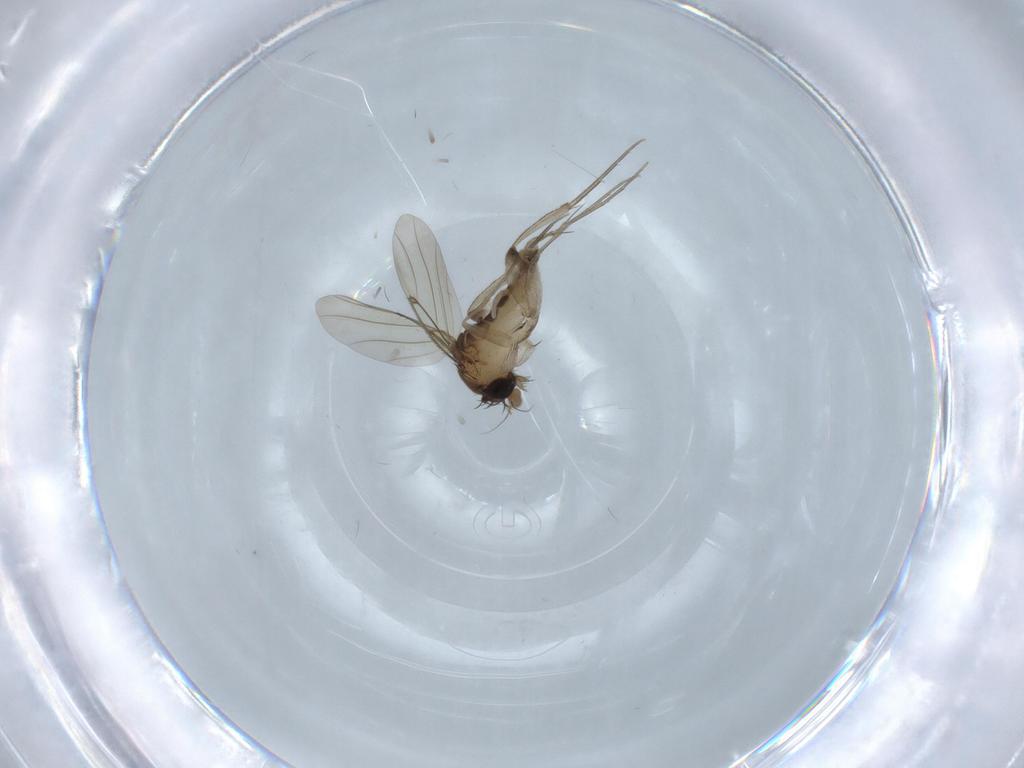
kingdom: Animalia
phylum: Arthropoda
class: Insecta
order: Diptera
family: Phoridae
